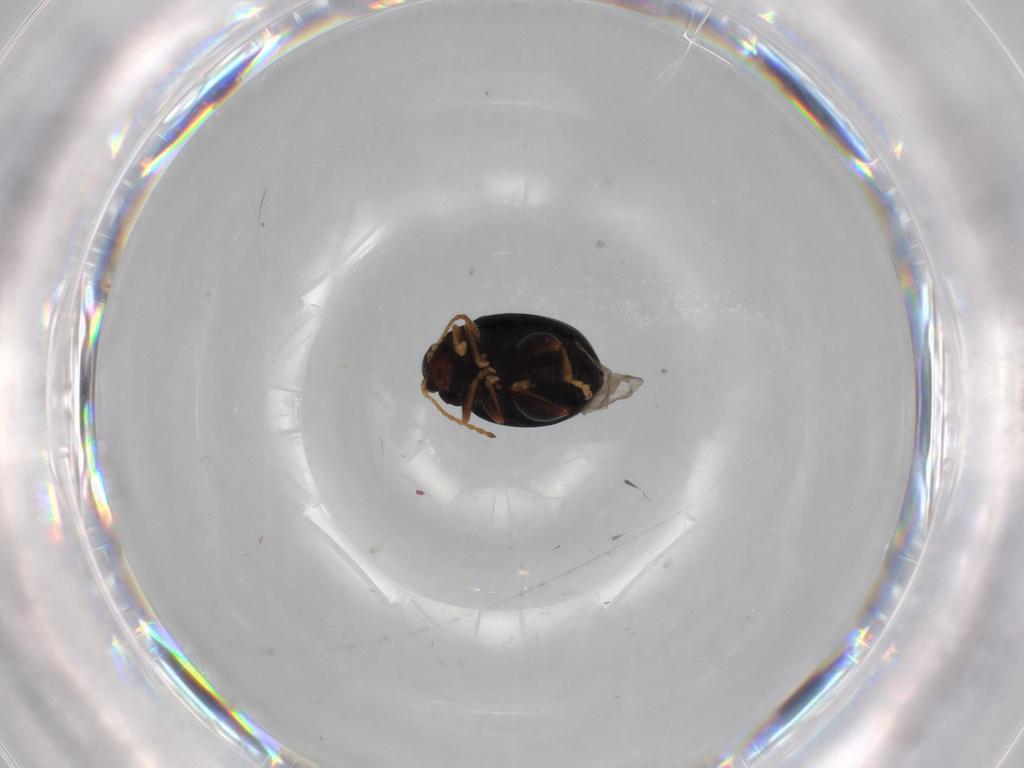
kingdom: Animalia
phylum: Arthropoda
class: Insecta
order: Coleoptera
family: Chrysomelidae
